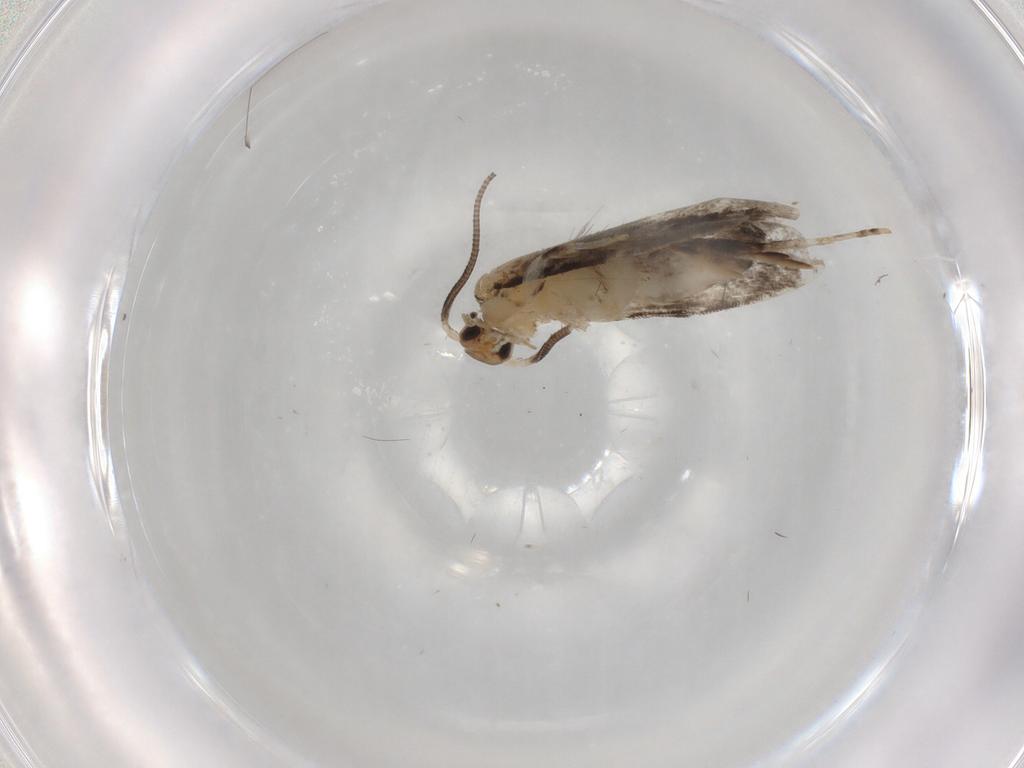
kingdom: Animalia
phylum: Arthropoda
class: Insecta
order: Lepidoptera
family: Dryadaulidae
